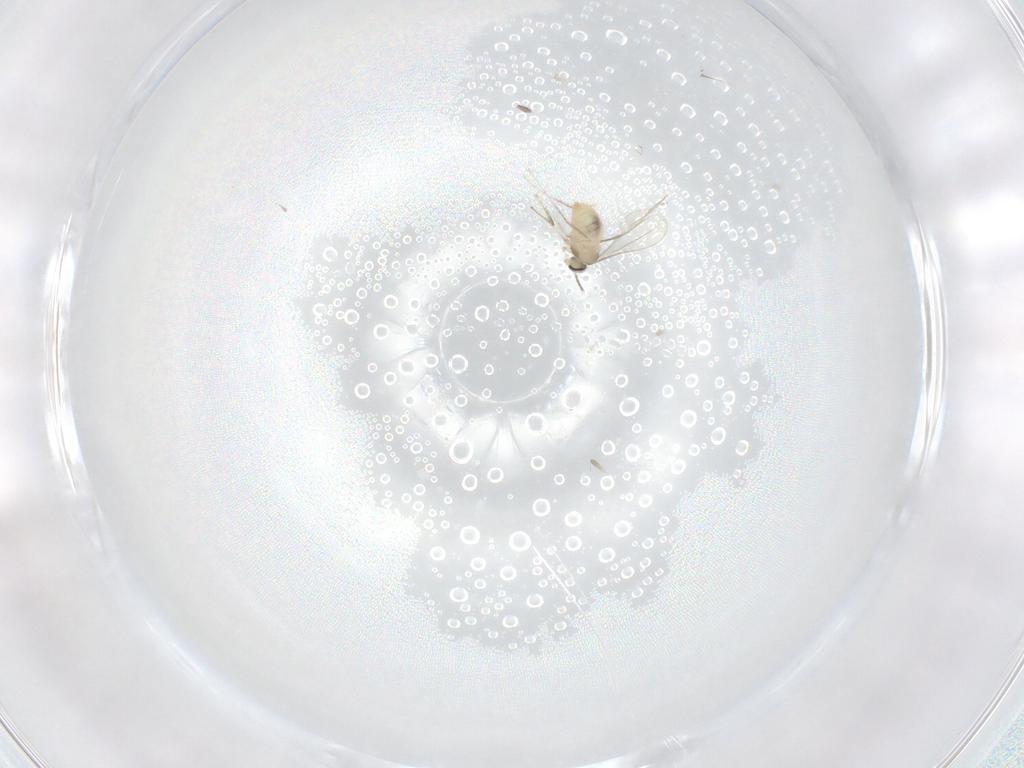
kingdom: Animalia
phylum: Arthropoda
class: Insecta
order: Diptera
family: Cecidomyiidae
